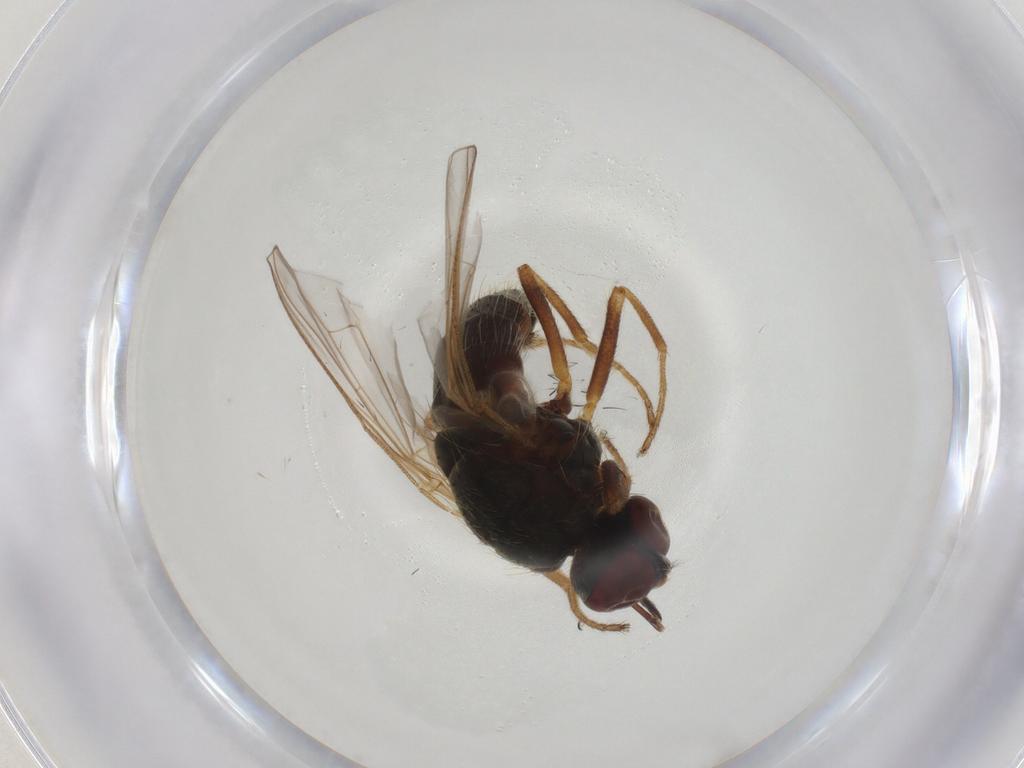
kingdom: Animalia
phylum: Arthropoda
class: Insecta
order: Diptera
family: Muscidae
